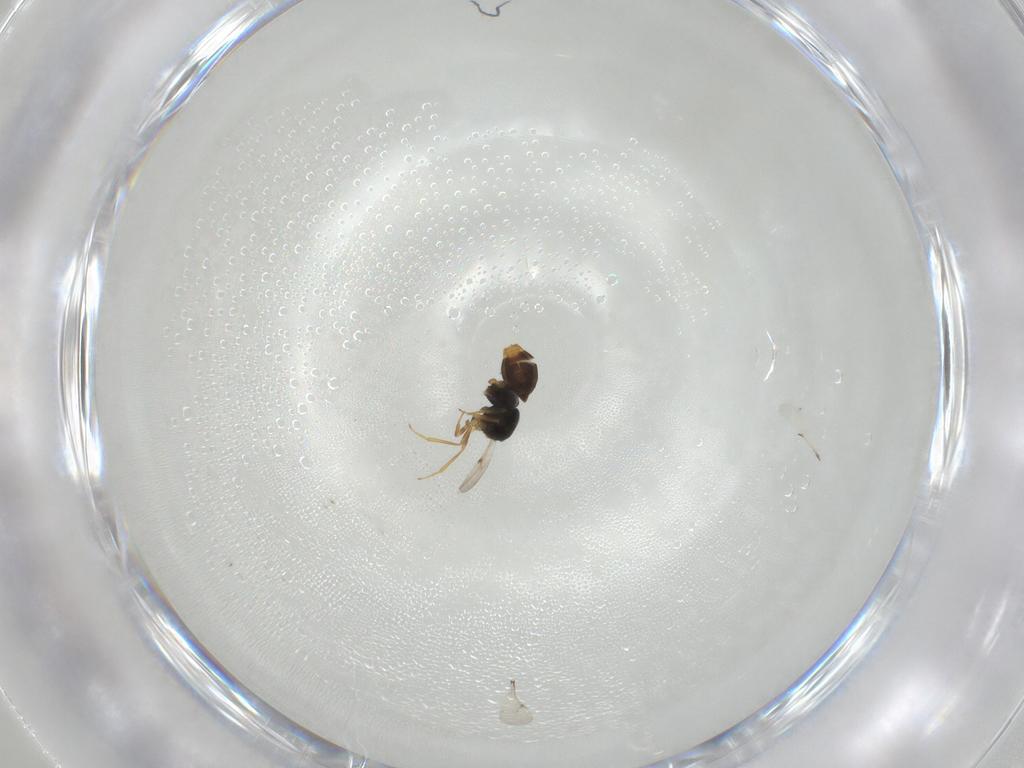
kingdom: Animalia
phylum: Arthropoda
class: Insecta
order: Hymenoptera
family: Scelionidae
